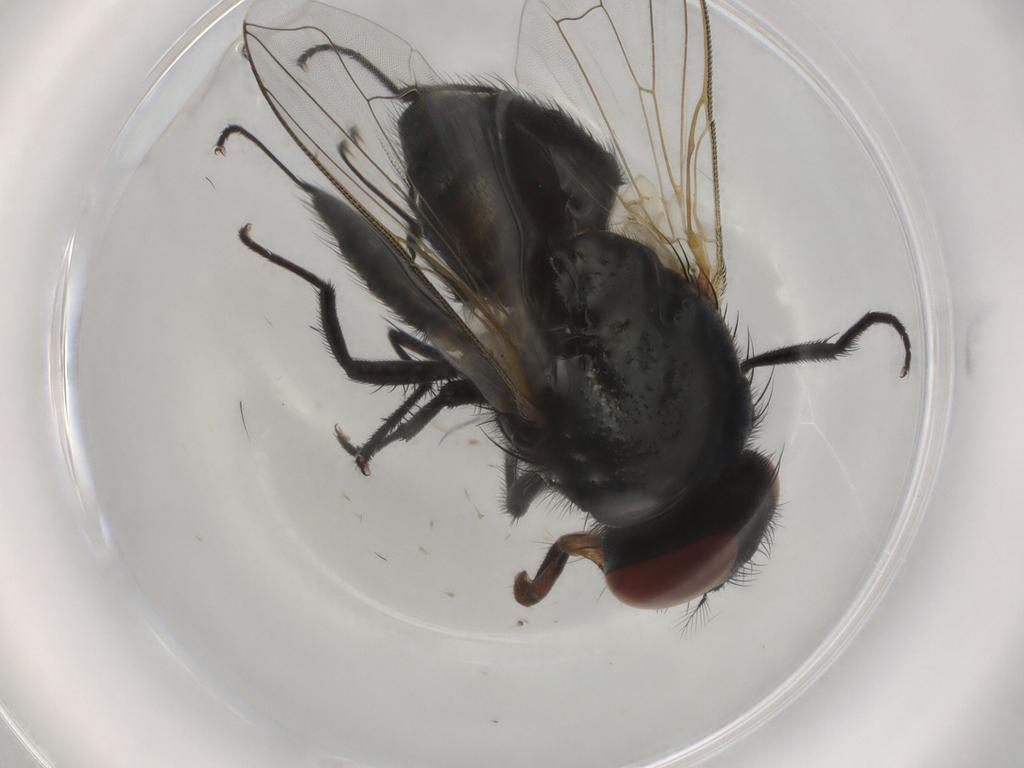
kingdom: Animalia
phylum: Arthropoda
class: Insecta
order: Diptera
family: Muscidae
